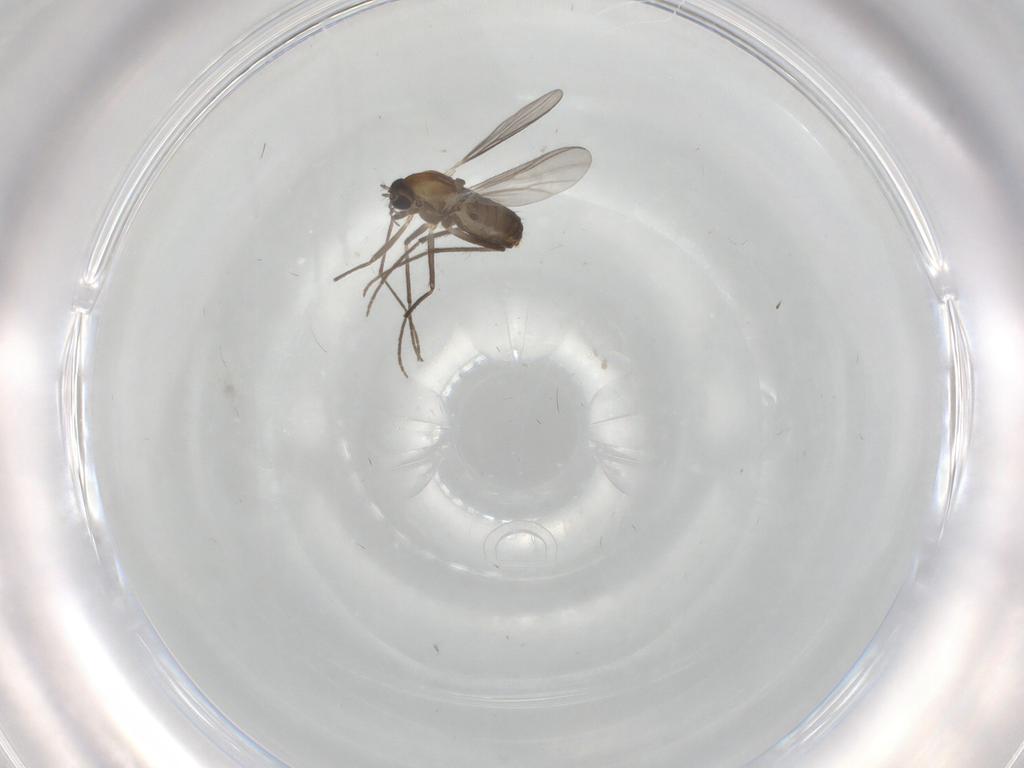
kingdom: Animalia
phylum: Arthropoda
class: Insecta
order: Diptera
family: Chironomidae
